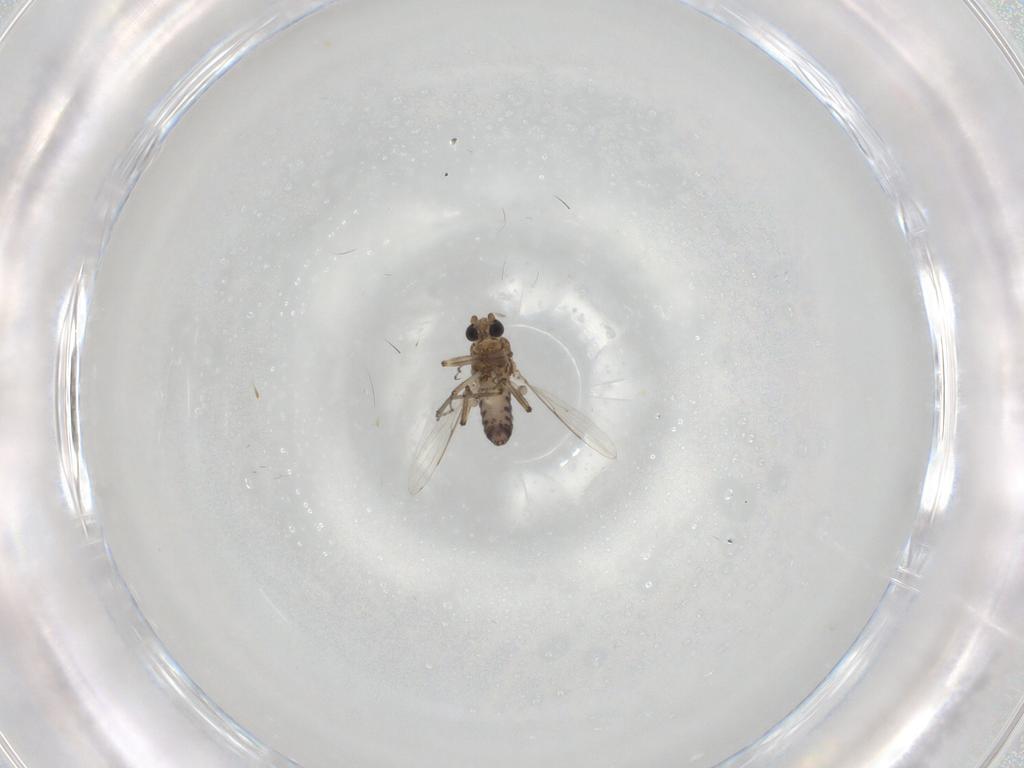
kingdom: Animalia
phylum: Arthropoda
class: Insecta
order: Diptera
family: Ceratopogonidae
